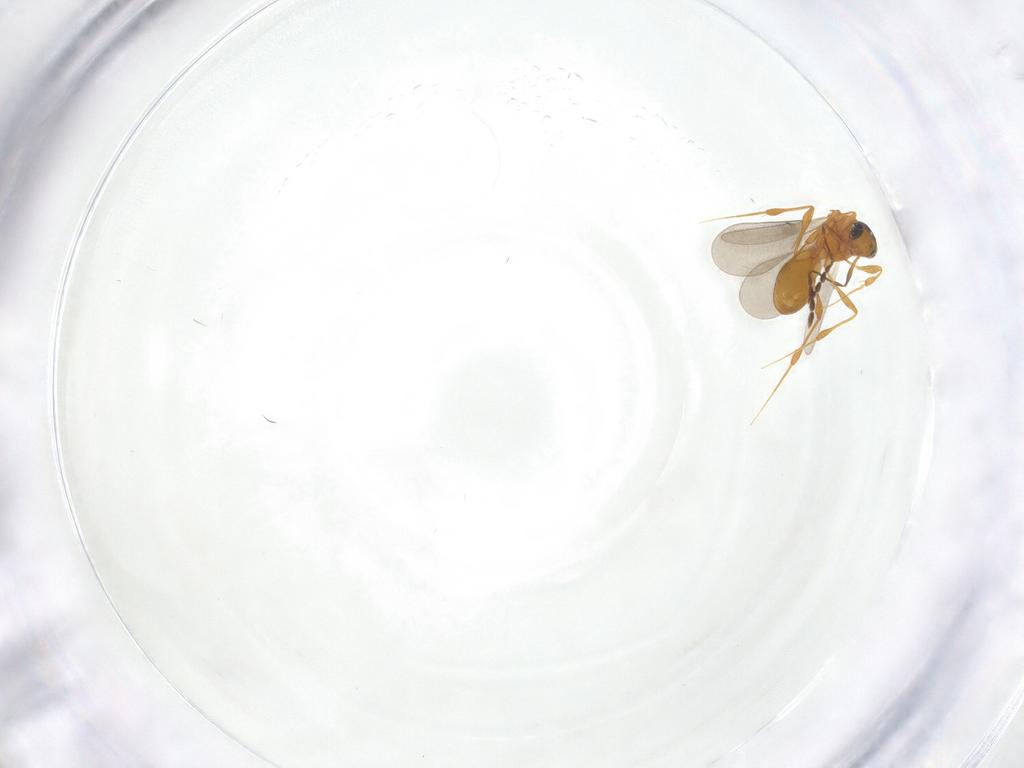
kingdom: Animalia
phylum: Arthropoda
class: Insecta
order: Hymenoptera
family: Platygastridae
